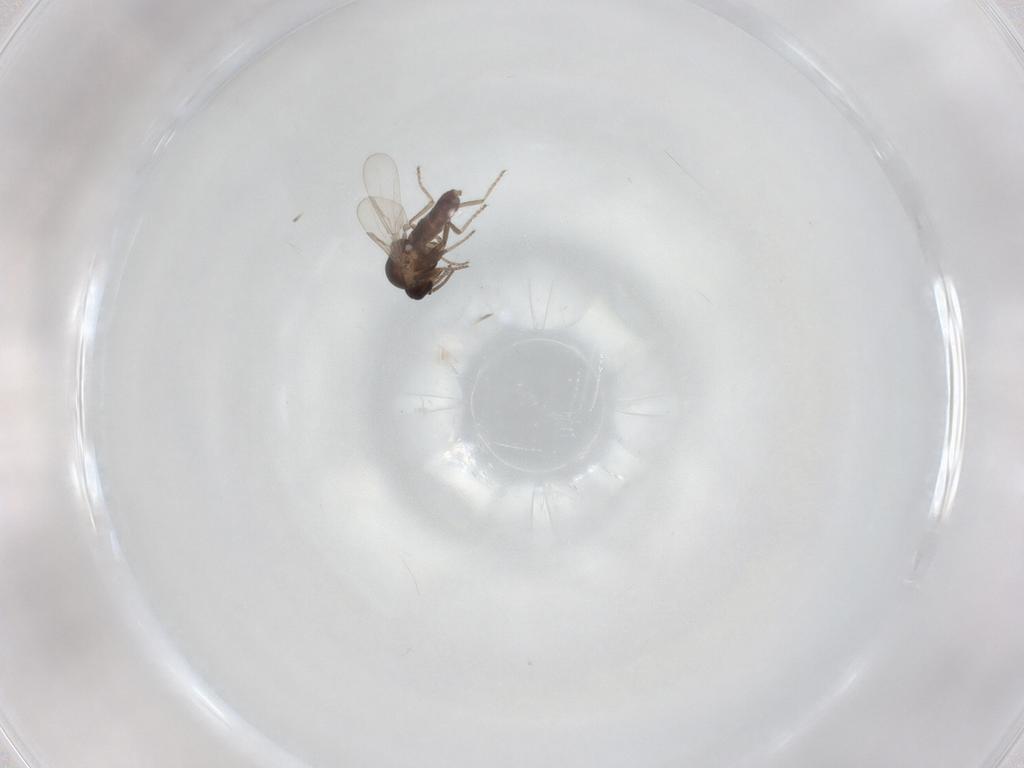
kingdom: Animalia
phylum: Arthropoda
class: Insecta
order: Diptera
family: Ceratopogonidae
